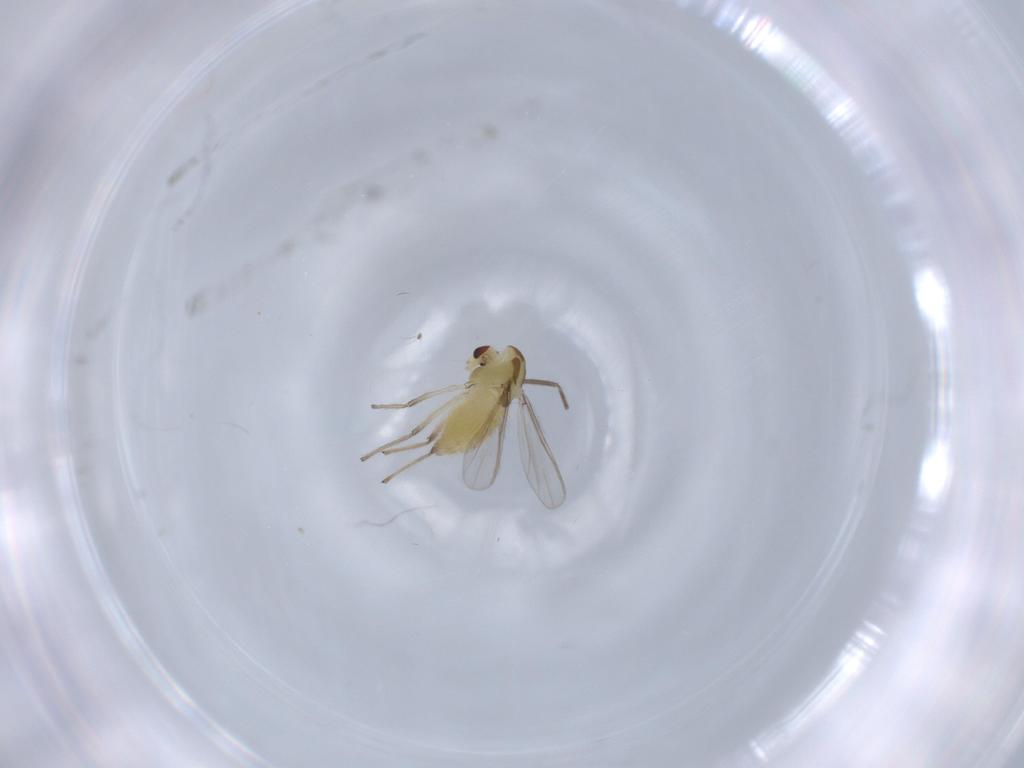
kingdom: Animalia
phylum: Arthropoda
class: Insecta
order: Diptera
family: Chironomidae
